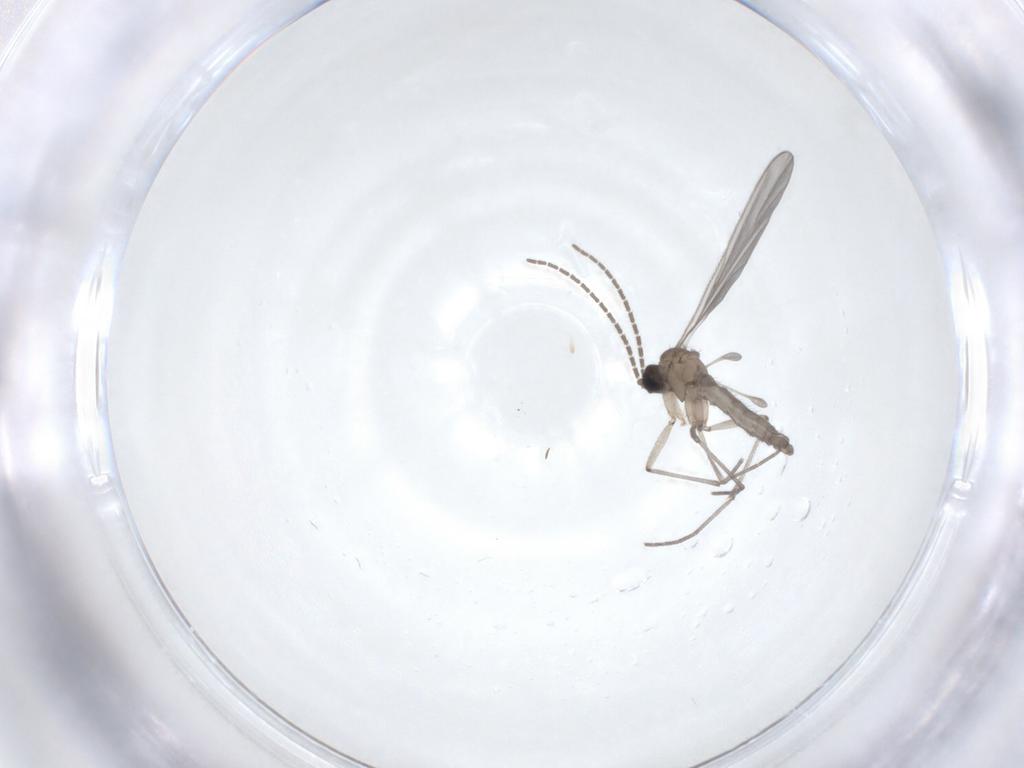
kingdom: Animalia
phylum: Arthropoda
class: Insecta
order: Diptera
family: Sciaridae
